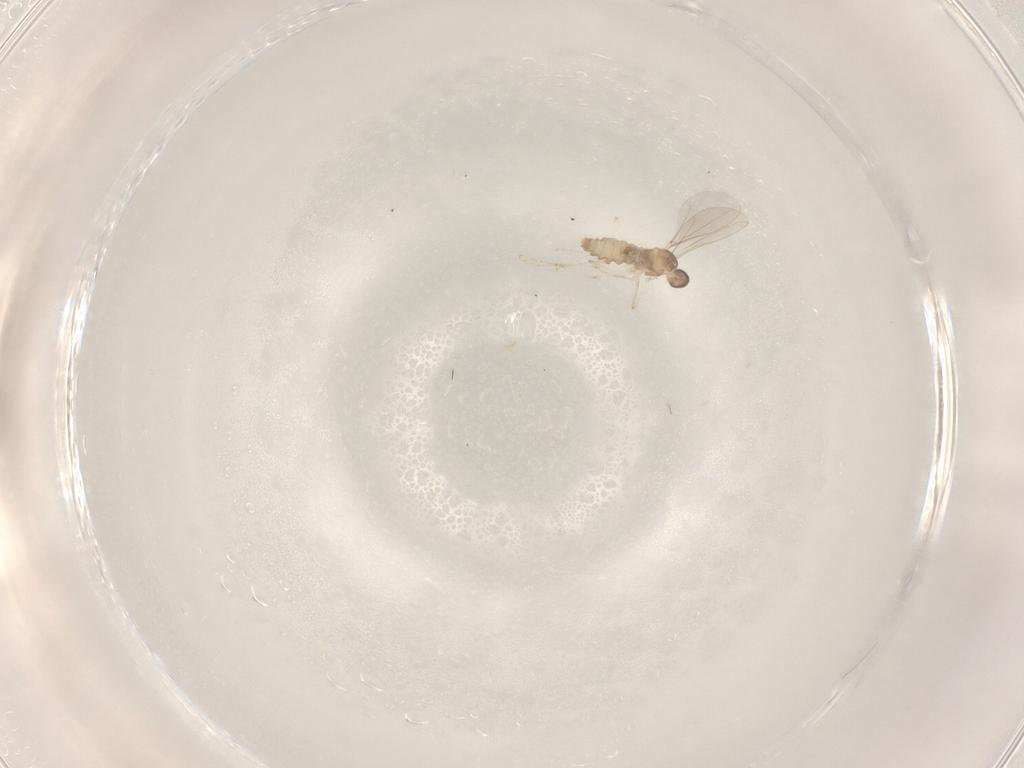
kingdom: Animalia
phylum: Arthropoda
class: Insecta
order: Diptera
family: Cecidomyiidae
